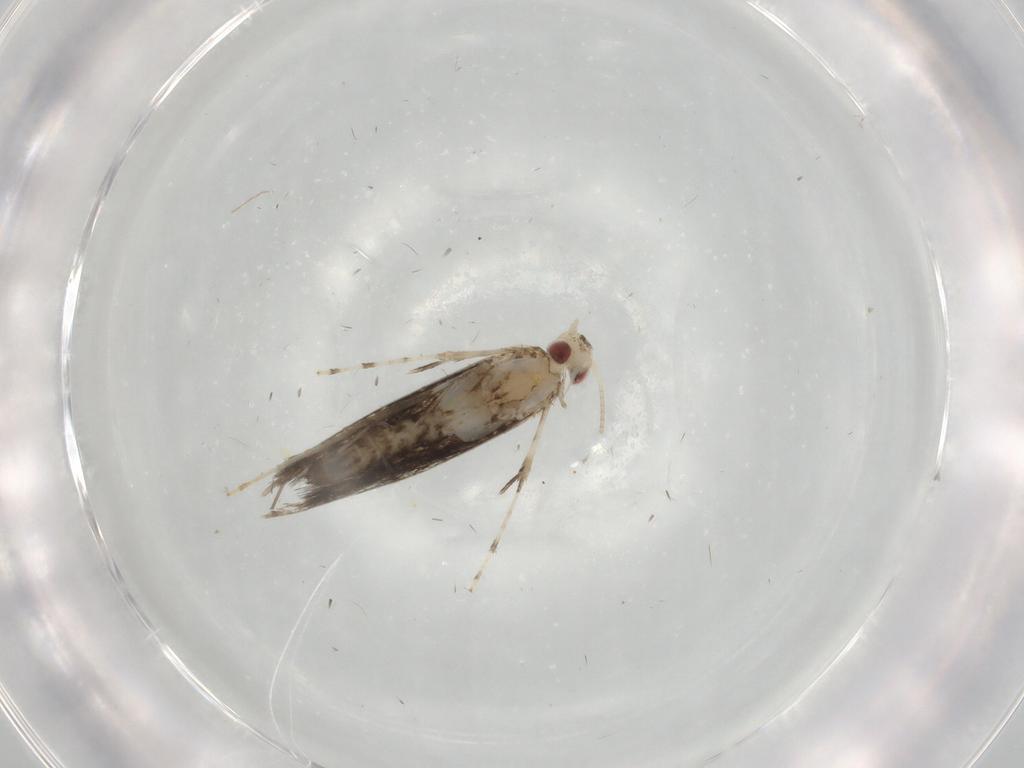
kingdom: Animalia
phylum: Arthropoda
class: Insecta
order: Lepidoptera
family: Gracillariidae
